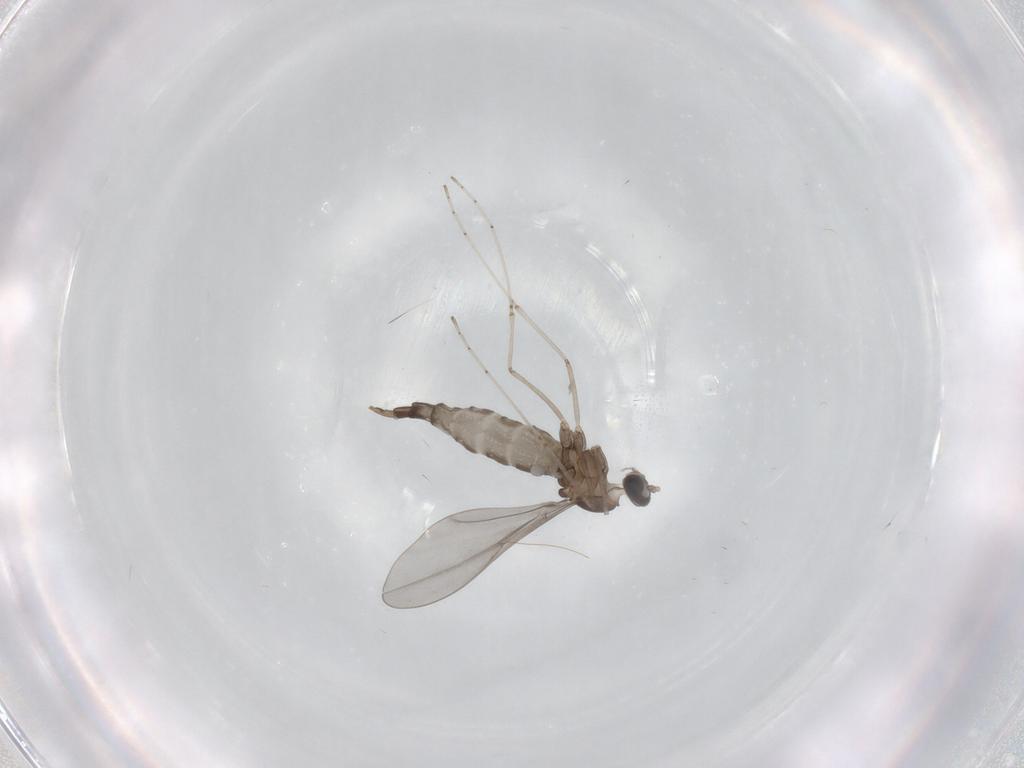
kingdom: Animalia
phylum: Arthropoda
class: Insecta
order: Diptera
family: Cecidomyiidae
